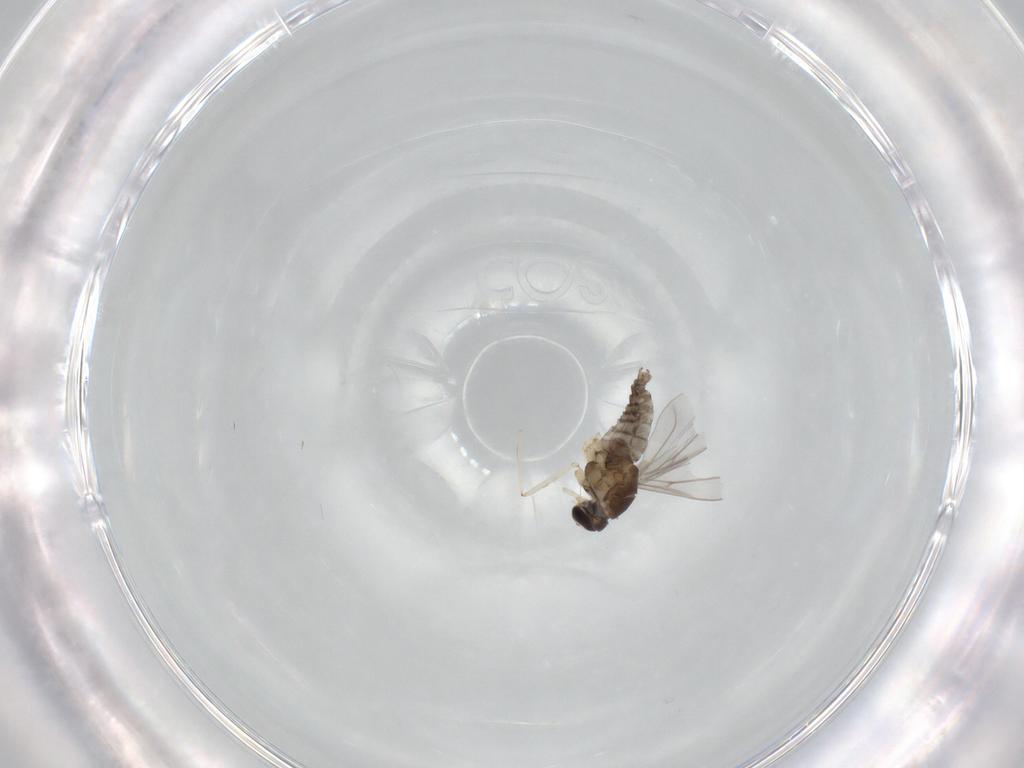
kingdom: Animalia
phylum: Arthropoda
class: Insecta
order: Diptera
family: Cecidomyiidae
